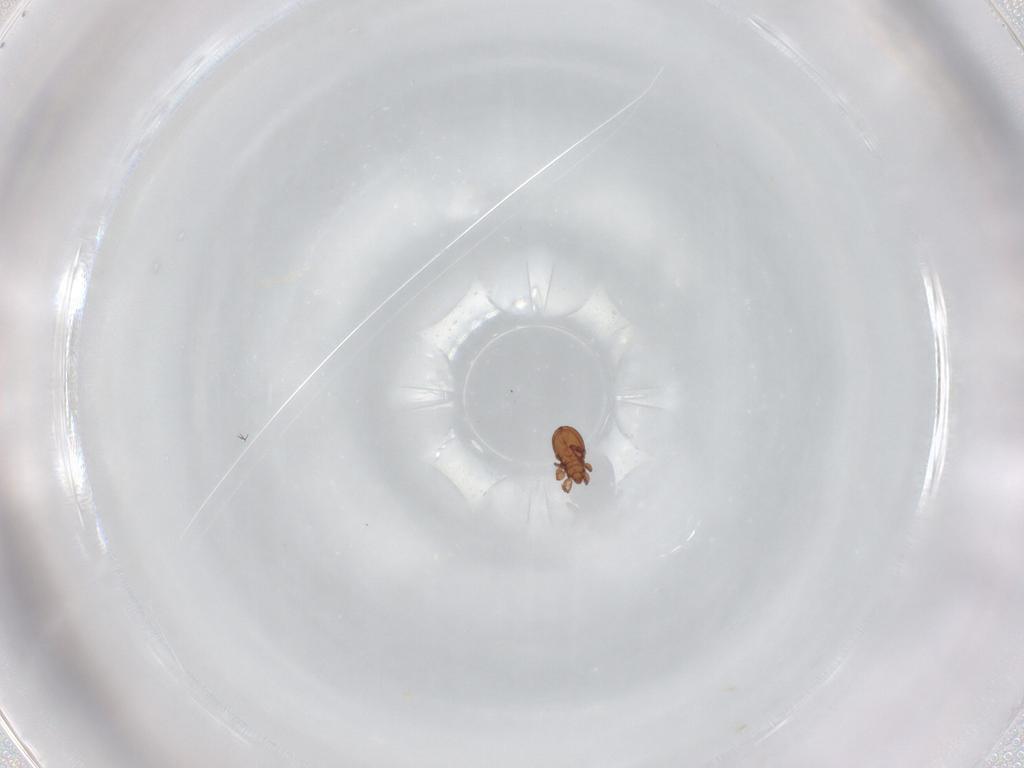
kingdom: Animalia
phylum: Arthropoda
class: Arachnida
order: Sarcoptiformes
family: Eremaeidae
